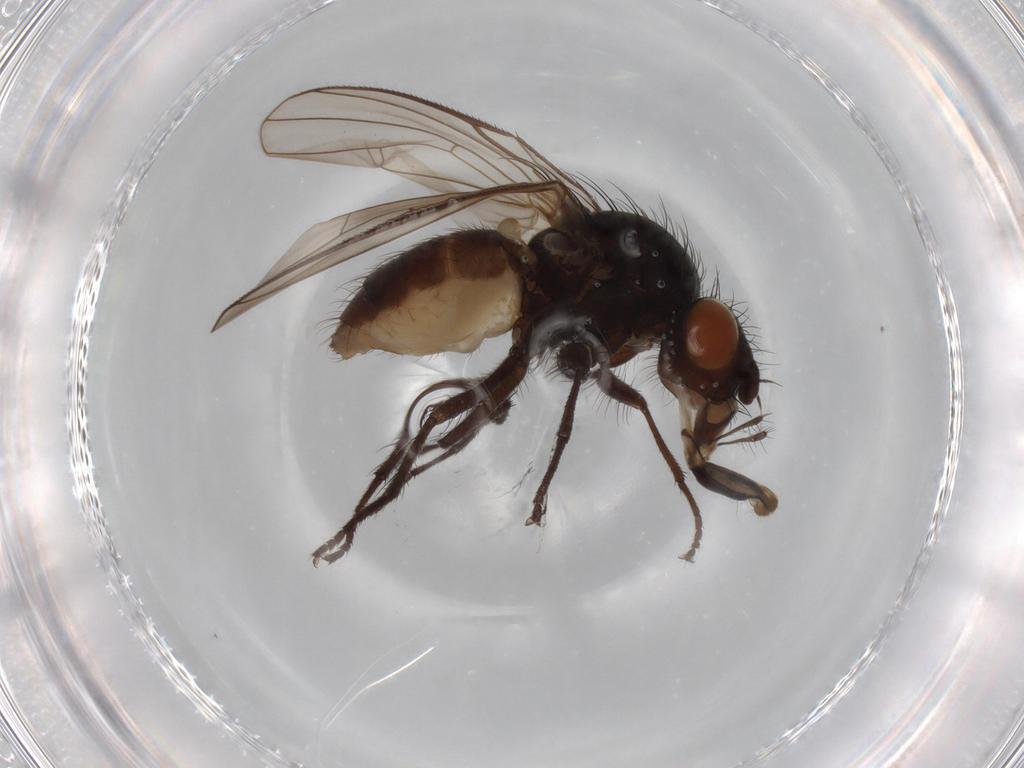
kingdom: Animalia
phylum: Arthropoda
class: Insecta
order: Diptera
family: Anthomyiidae
